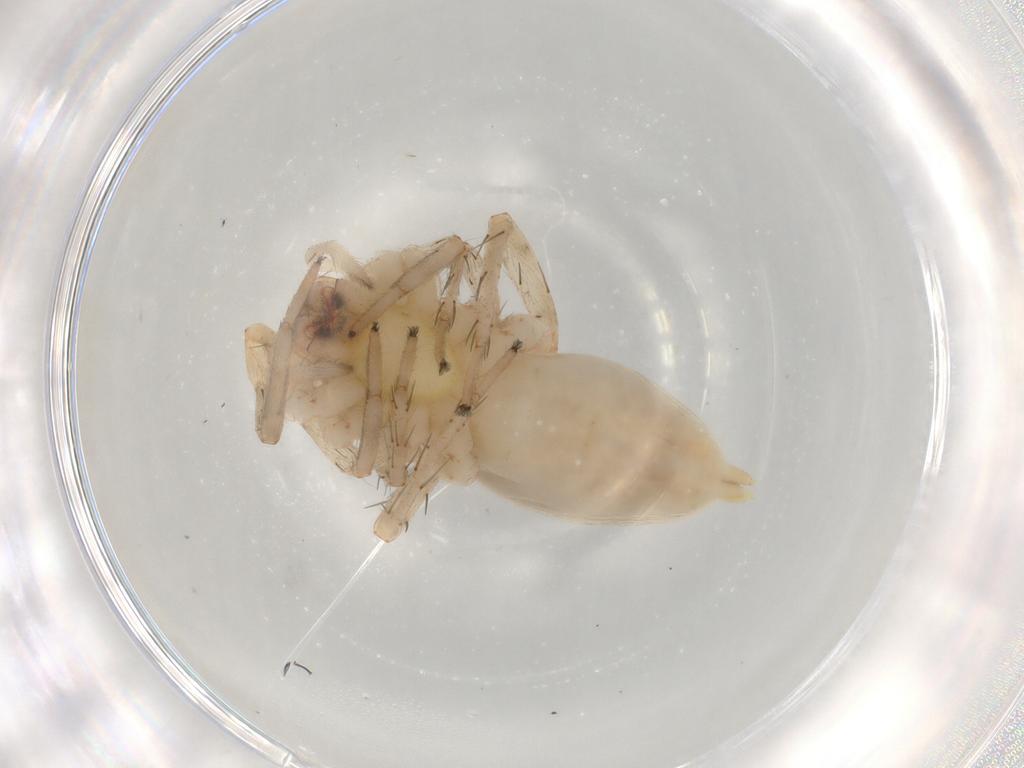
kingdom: Animalia
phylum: Arthropoda
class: Arachnida
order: Araneae
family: Anyphaenidae
